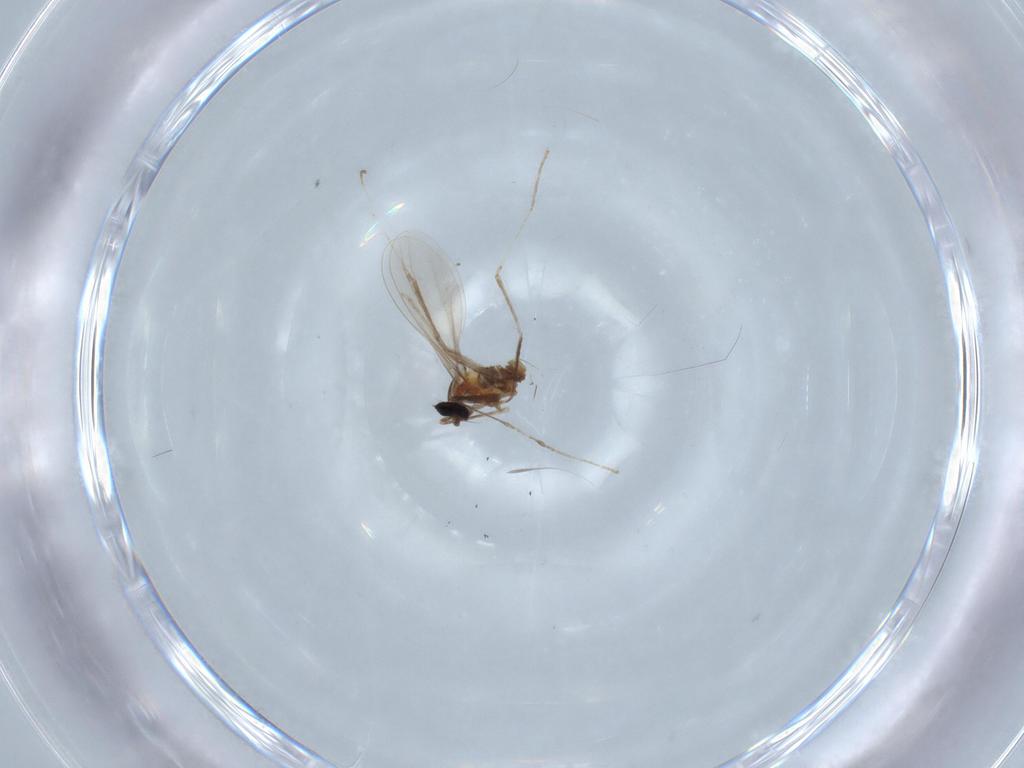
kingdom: Animalia
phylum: Arthropoda
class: Insecta
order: Diptera
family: Cecidomyiidae
